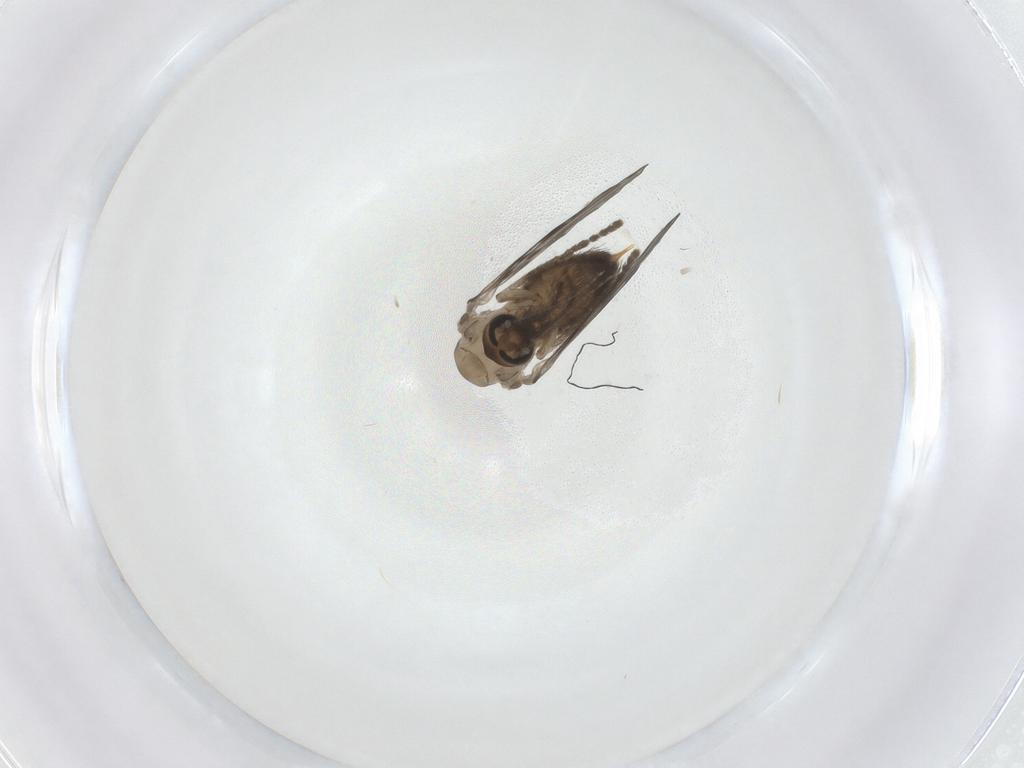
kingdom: Animalia
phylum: Arthropoda
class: Insecta
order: Diptera
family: Psychodidae
